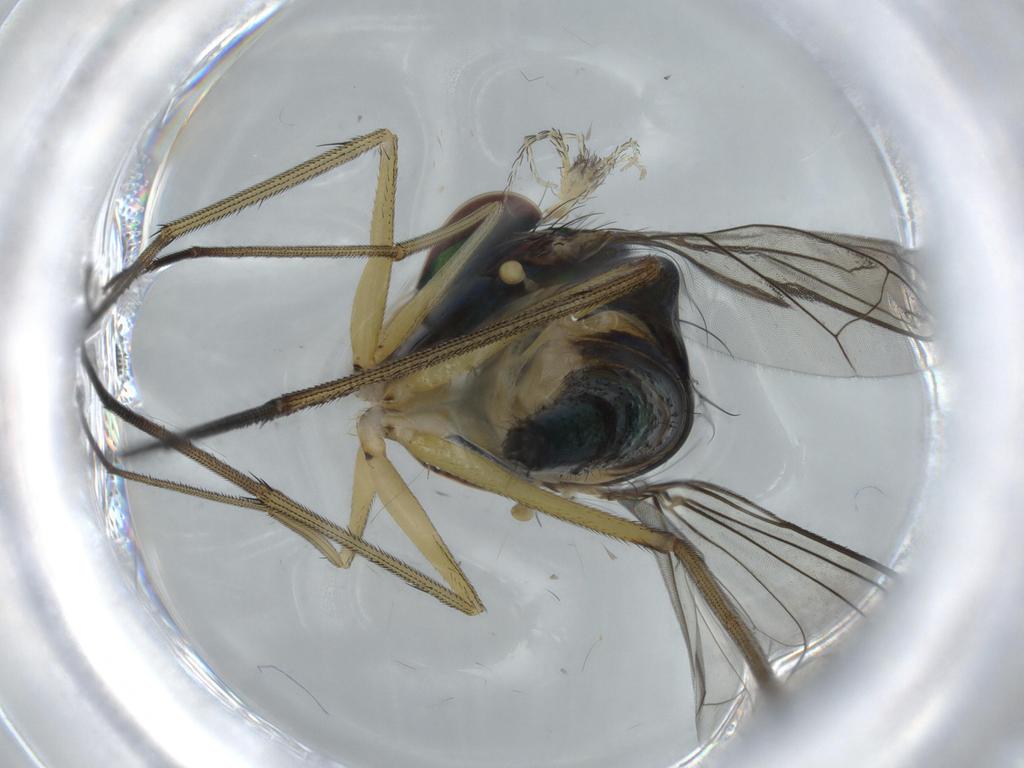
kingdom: Animalia
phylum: Arthropoda
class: Insecta
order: Diptera
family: Dolichopodidae
